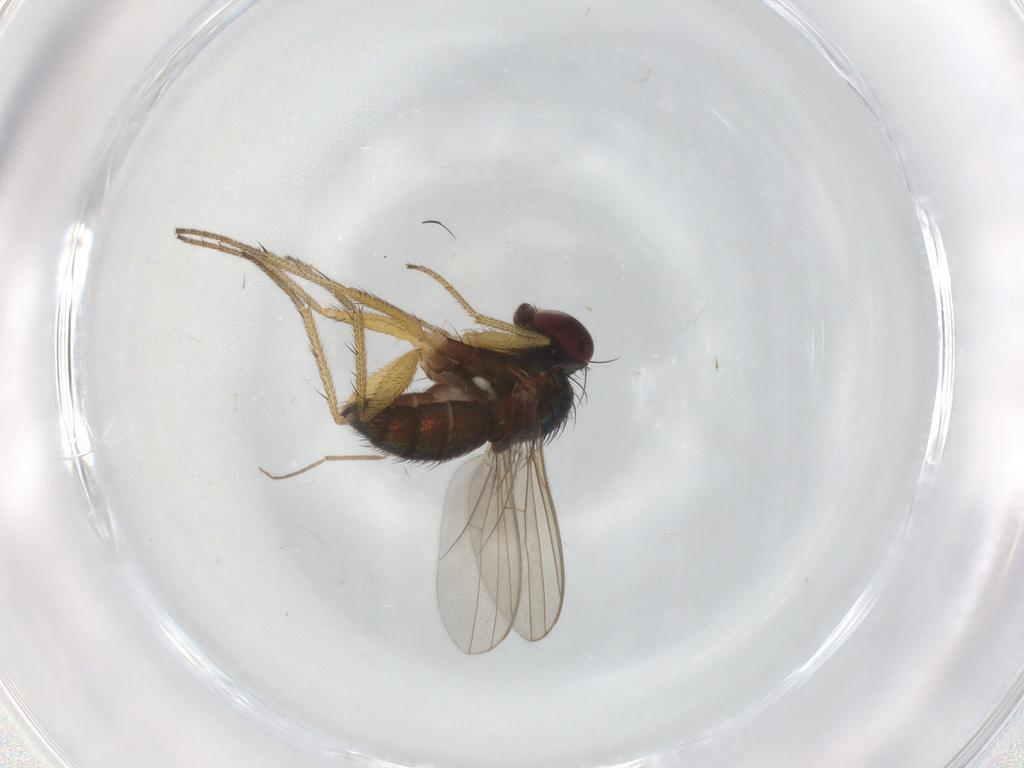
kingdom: Animalia
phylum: Arthropoda
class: Insecta
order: Diptera
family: Dolichopodidae
